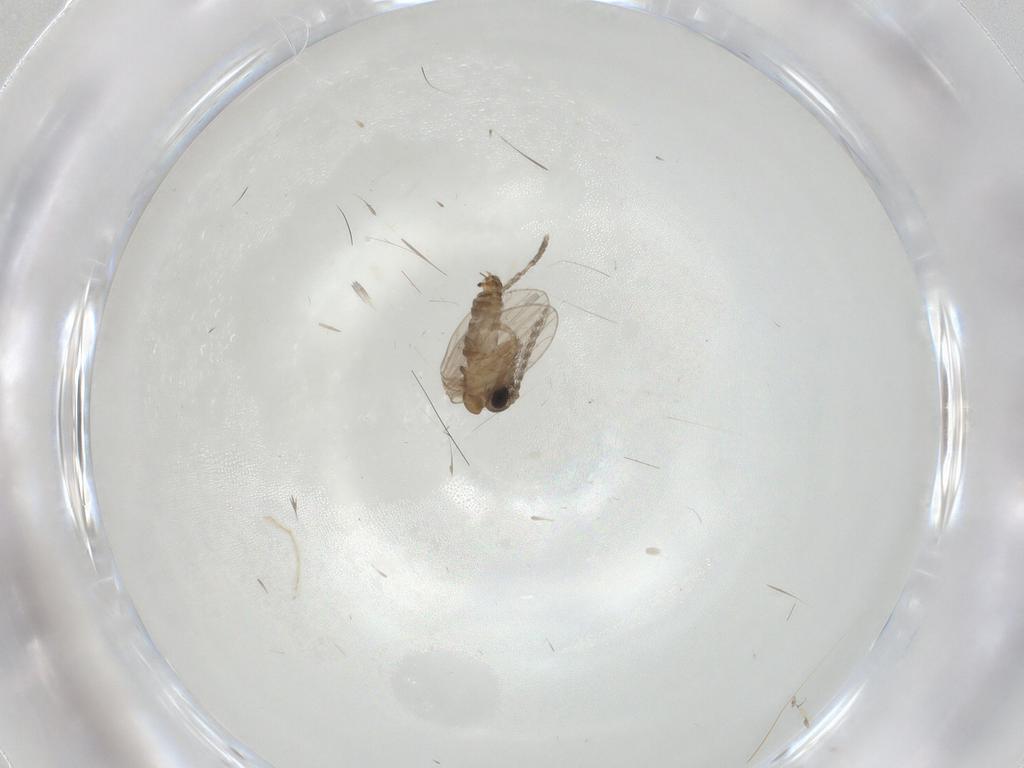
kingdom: Animalia
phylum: Arthropoda
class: Insecta
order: Diptera
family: Psychodidae
